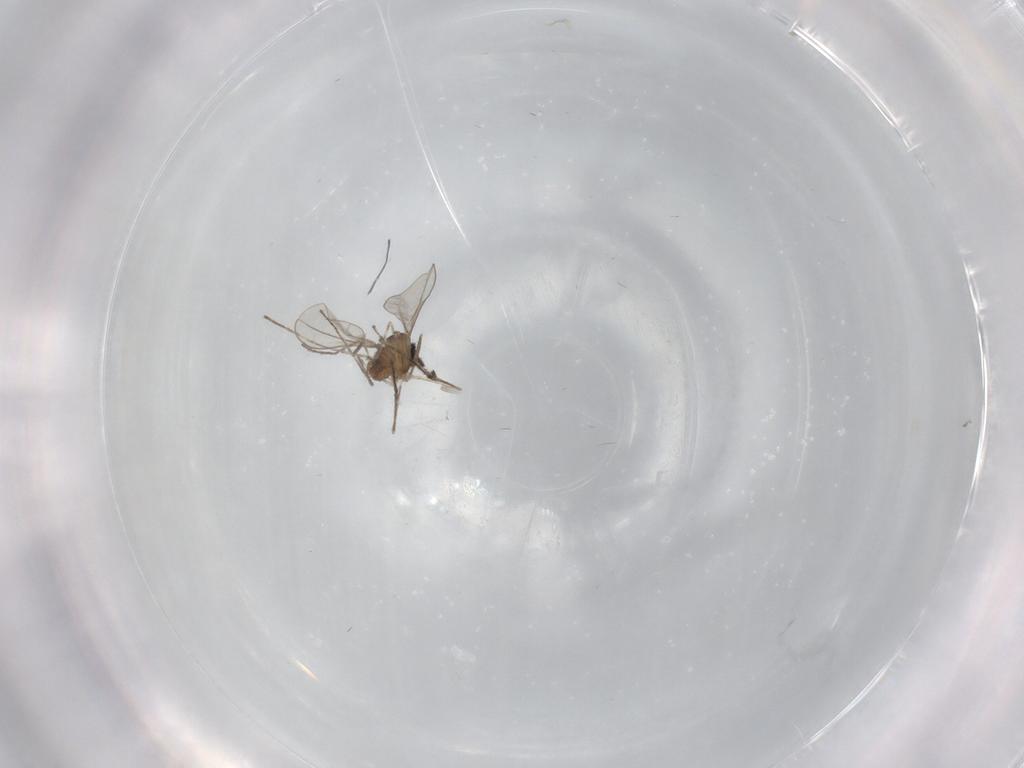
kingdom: Animalia
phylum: Arthropoda
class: Insecta
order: Diptera
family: Cecidomyiidae
